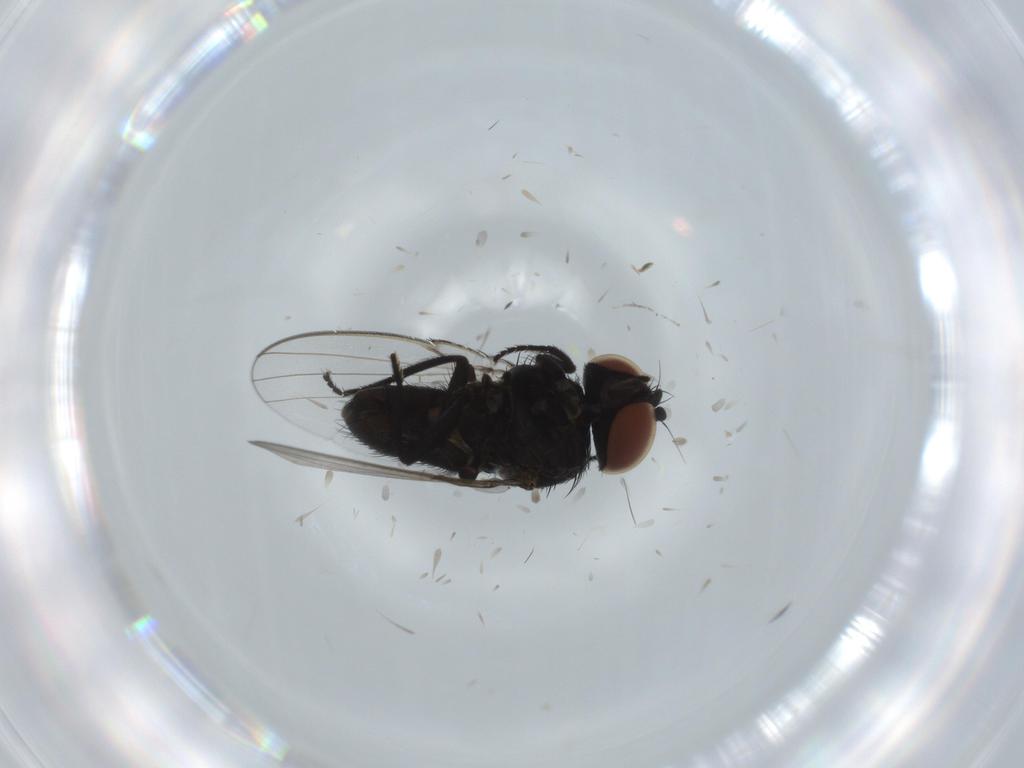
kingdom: Animalia
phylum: Arthropoda
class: Insecta
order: Diptera
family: Milichiidae
